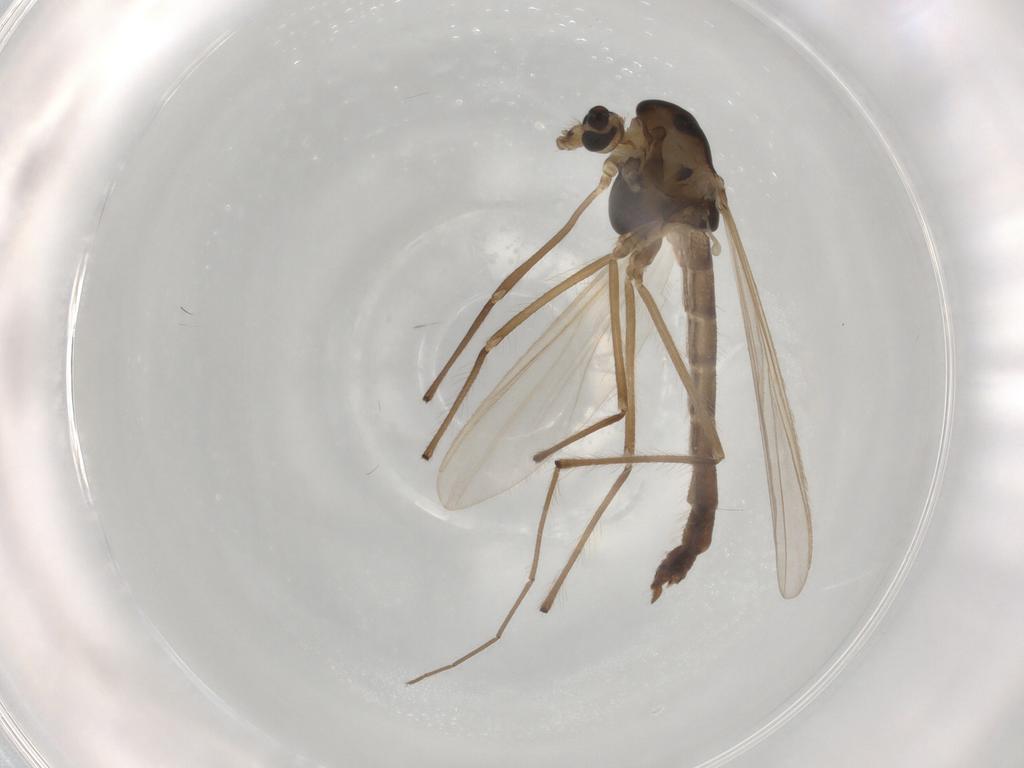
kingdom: Animalia
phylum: Arthropoda
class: Insecta
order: Diptera
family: Chironomidae
